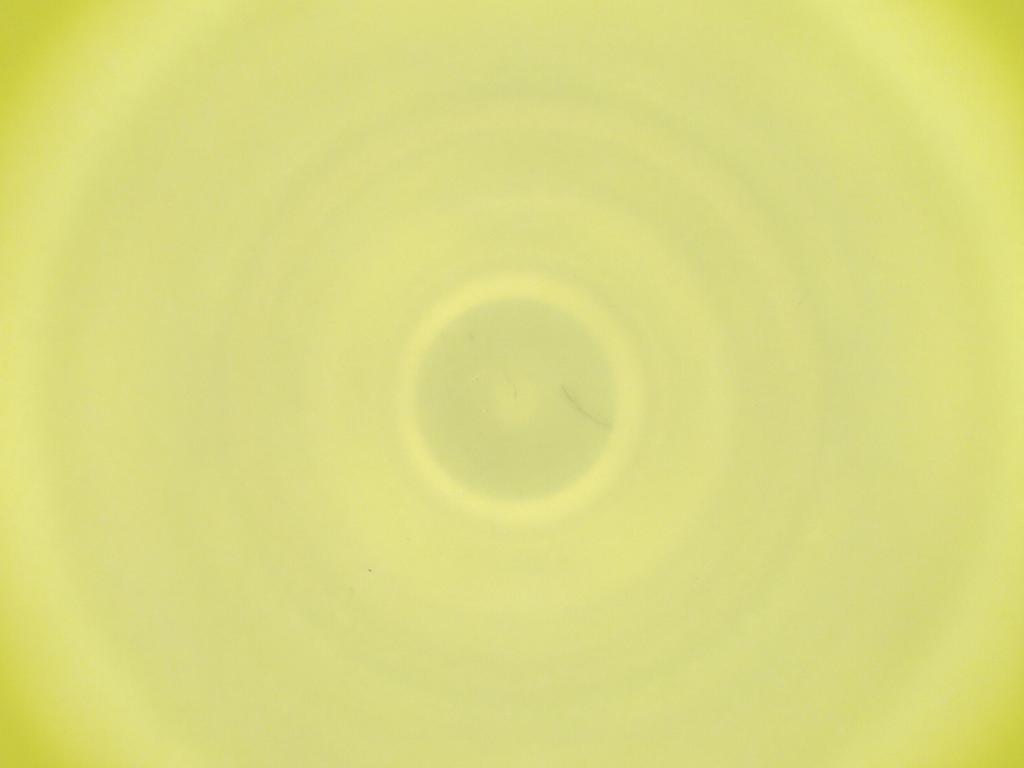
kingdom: Animalia
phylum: Arthropoda
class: Insecta
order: Diptera
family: Cecidomyiidae
